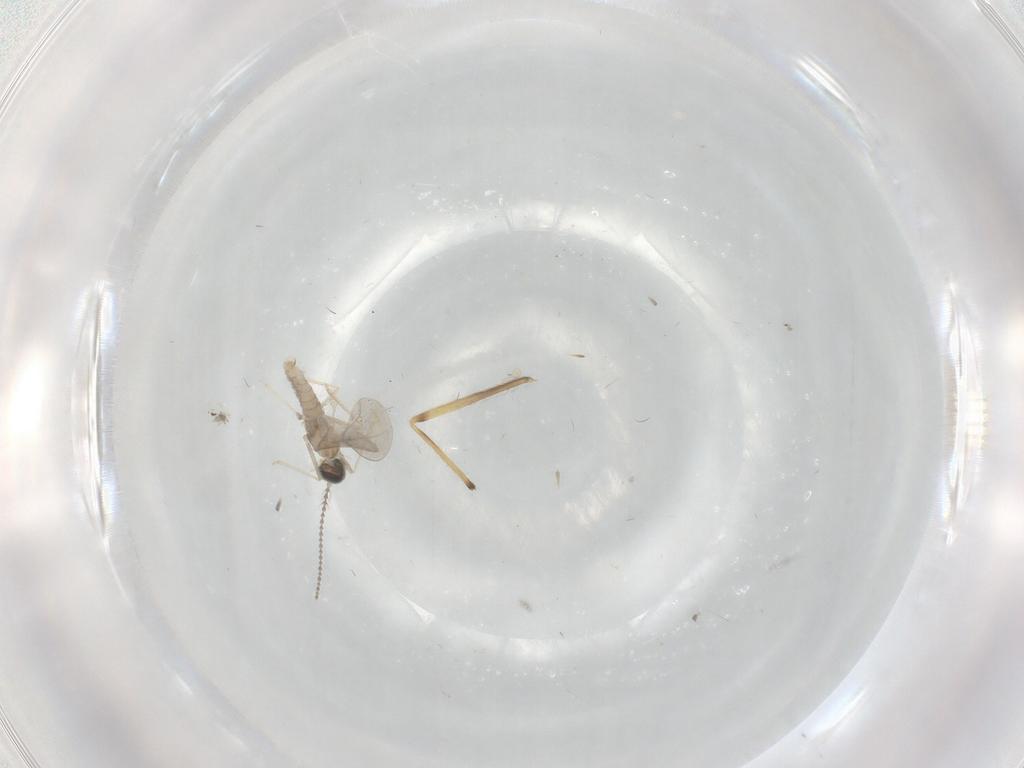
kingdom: Animalia
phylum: Arthropoda
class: Insecta
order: Diptera
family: Cecidomyiidae
